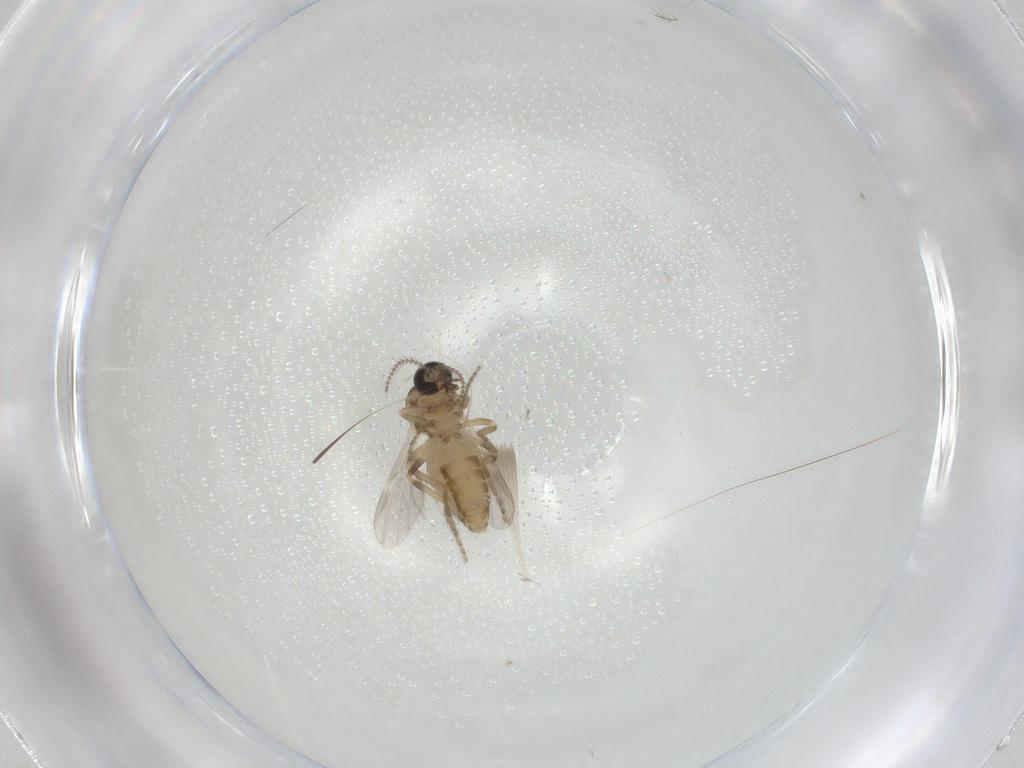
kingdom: Animalia
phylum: Arthropoda
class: Insecta
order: Diptera
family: Ceratopogonidae
